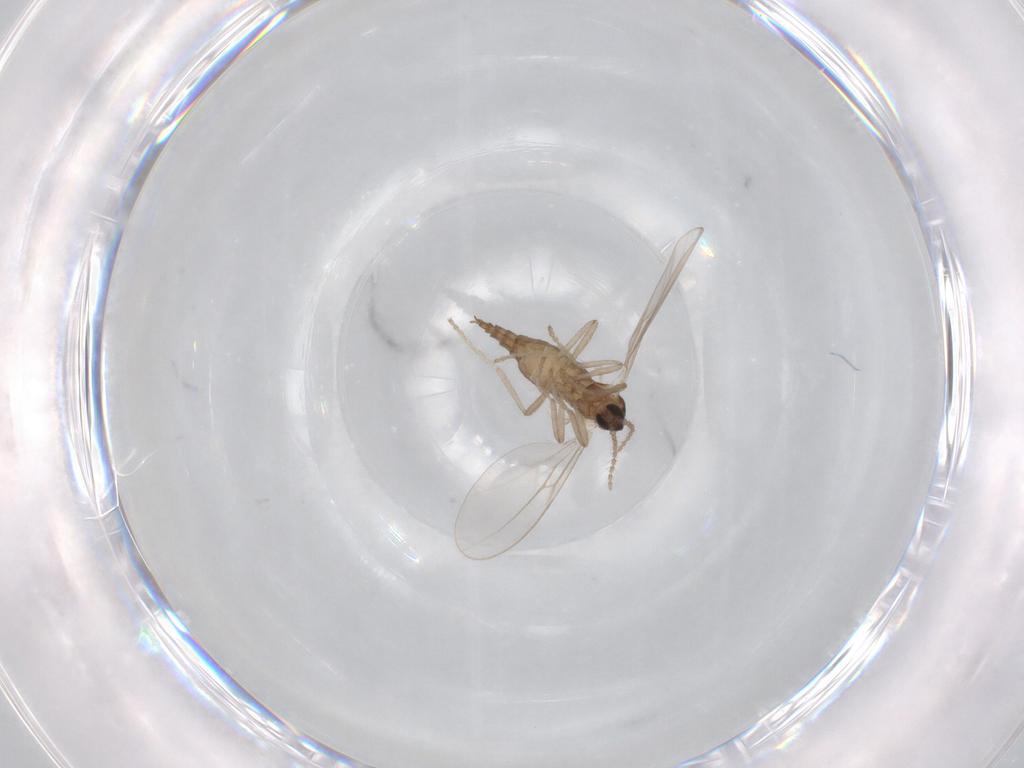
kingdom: Animalia
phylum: Arthropoda
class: Insecta
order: Diptera
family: Cecidomyiidae
